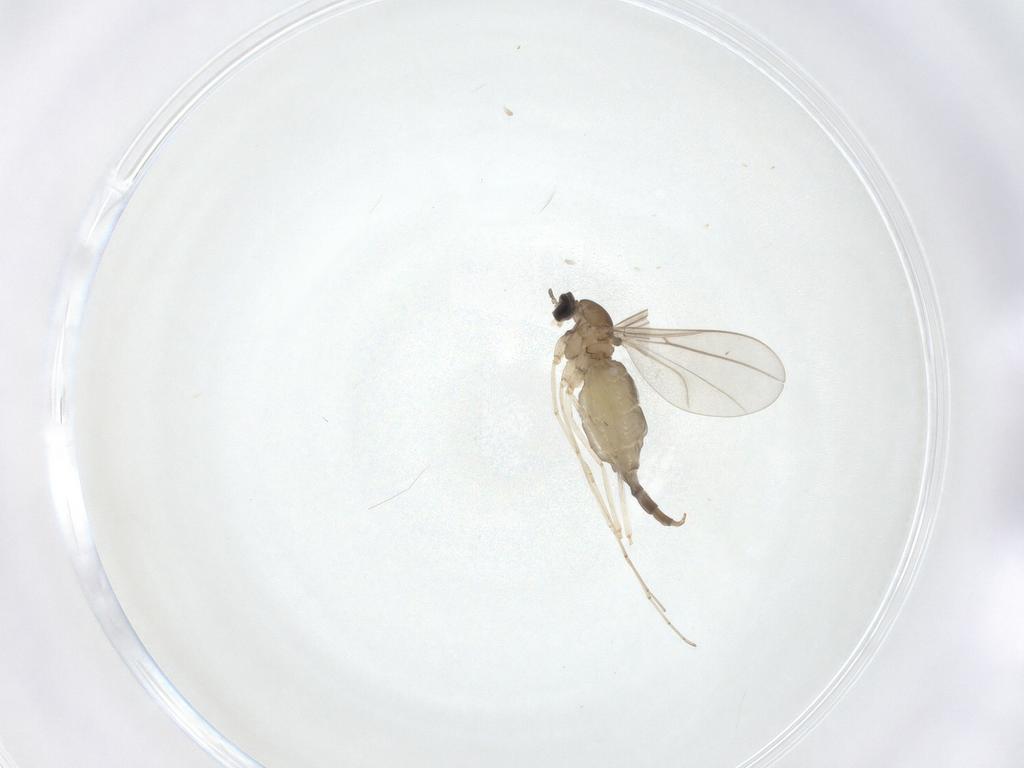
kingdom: Animalia
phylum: Arthropoda
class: Insecta
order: Diptera
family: Cecidomyiidae
